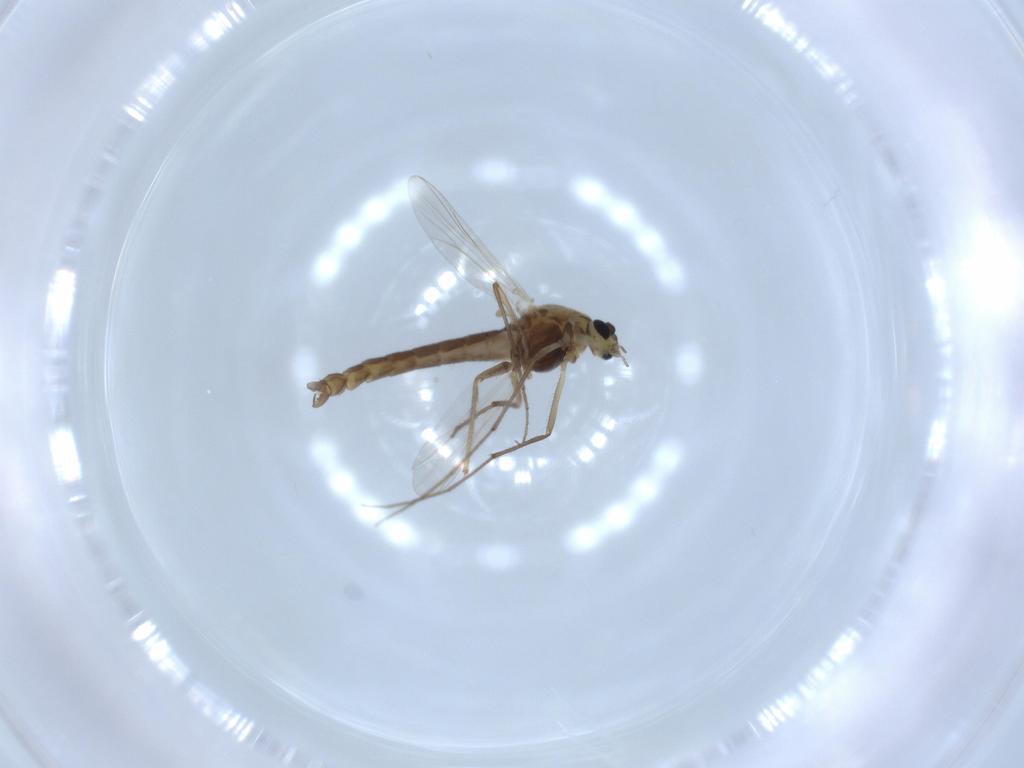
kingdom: Animalia
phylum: Arthropoda
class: Insecta
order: Diptera
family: Chironomidae
